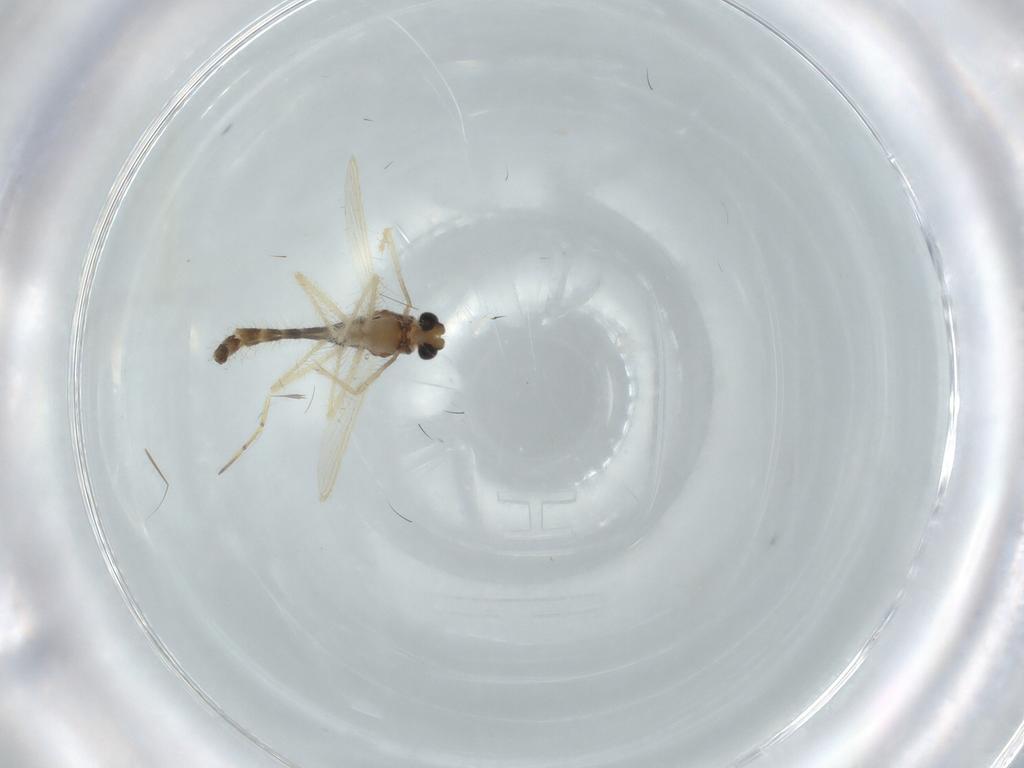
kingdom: Animalia
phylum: Arthropoda
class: Insecta
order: Diptera
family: Chironomidae
